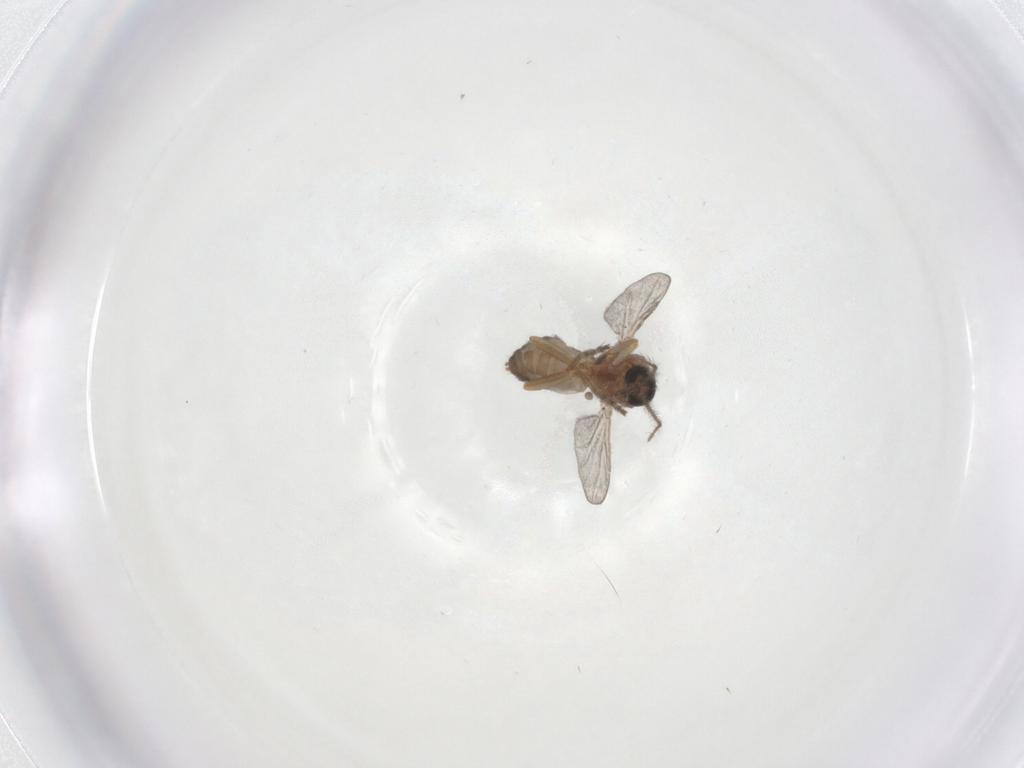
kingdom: Animalia
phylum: Arthropoda
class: Insecta
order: Diptera
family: Ceratopogonidae
